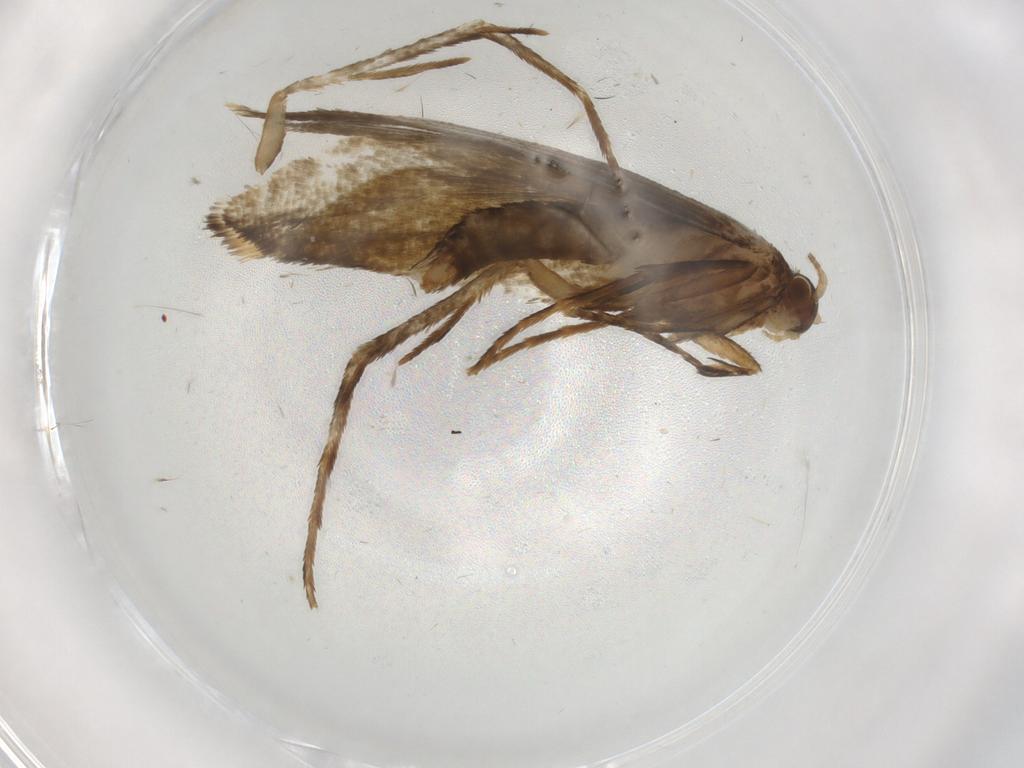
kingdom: Animalia
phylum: Arthropoda
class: Insecta
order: Lepidoptera
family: Tineidae
